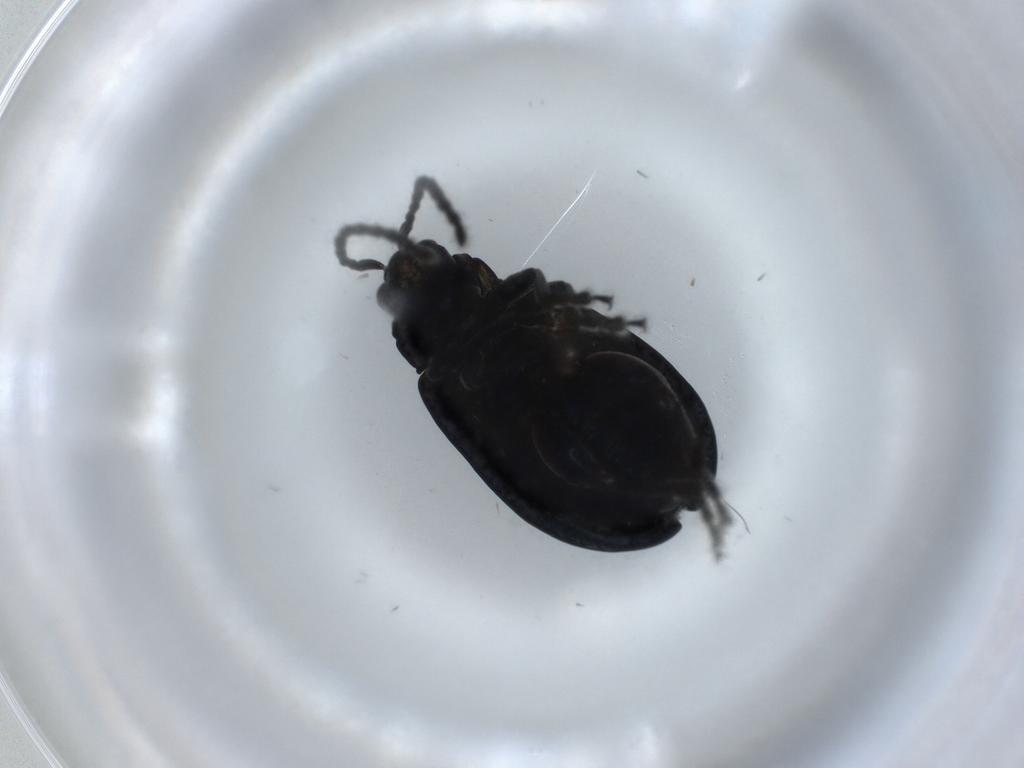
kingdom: Animalia
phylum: Arthropoda
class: Insecta
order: Coleoptera
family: Chrysomelidae
